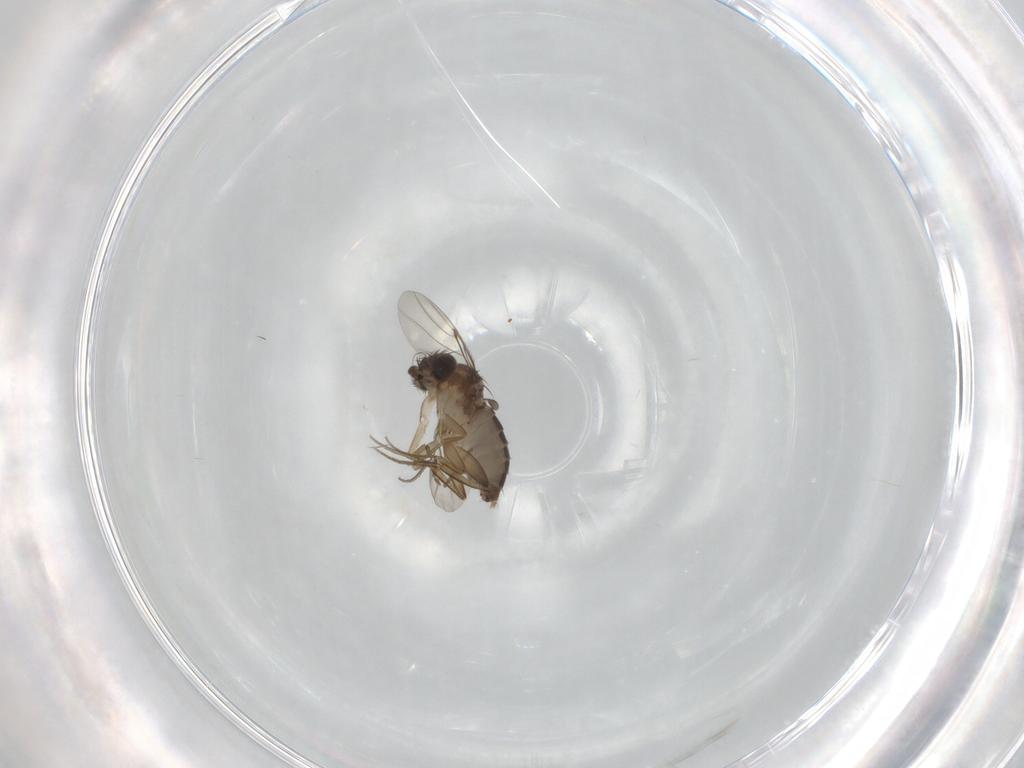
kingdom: Animalia
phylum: Arthropoda
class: Insecta
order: Diptera
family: Phoridae
